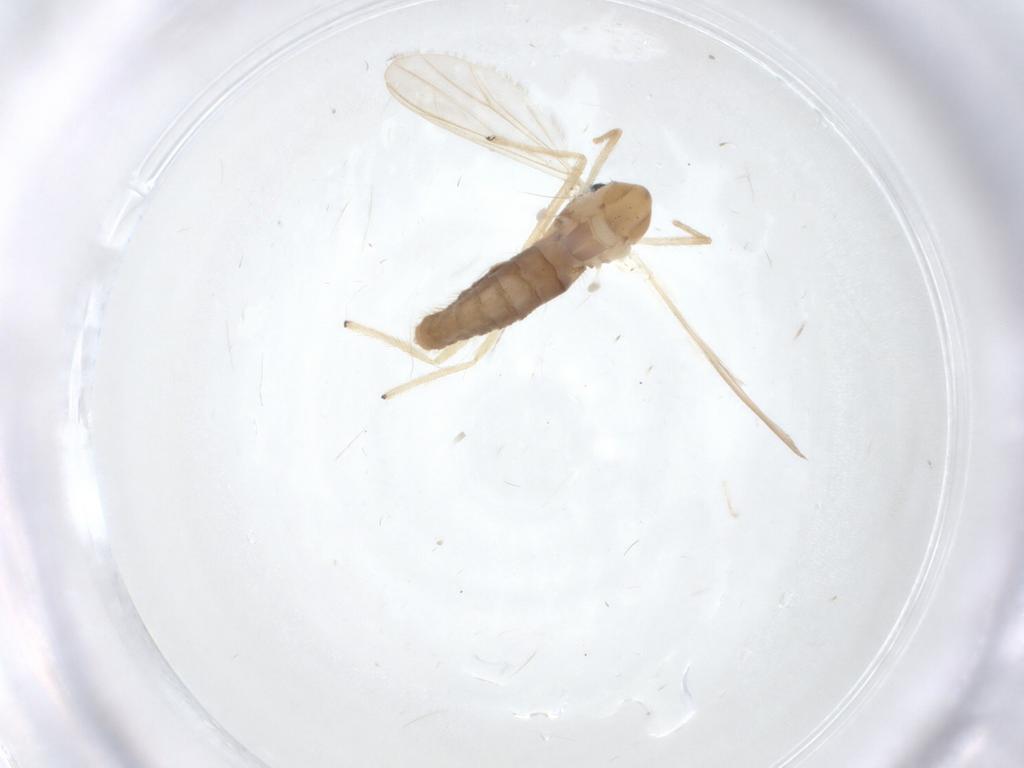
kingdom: Animalia
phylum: Arthropoda
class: Insecta
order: Diptera
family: Chironomidae
